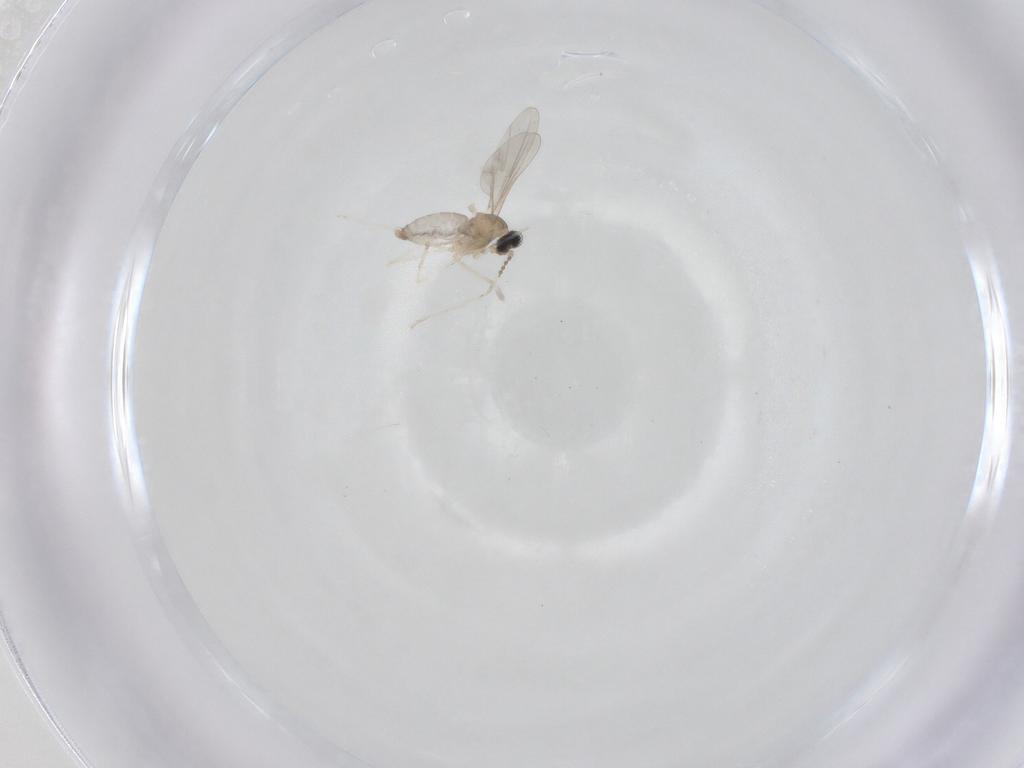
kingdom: Animalia
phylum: Arthropoda
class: Insecta
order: Diptera
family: Cecidomyiidae
